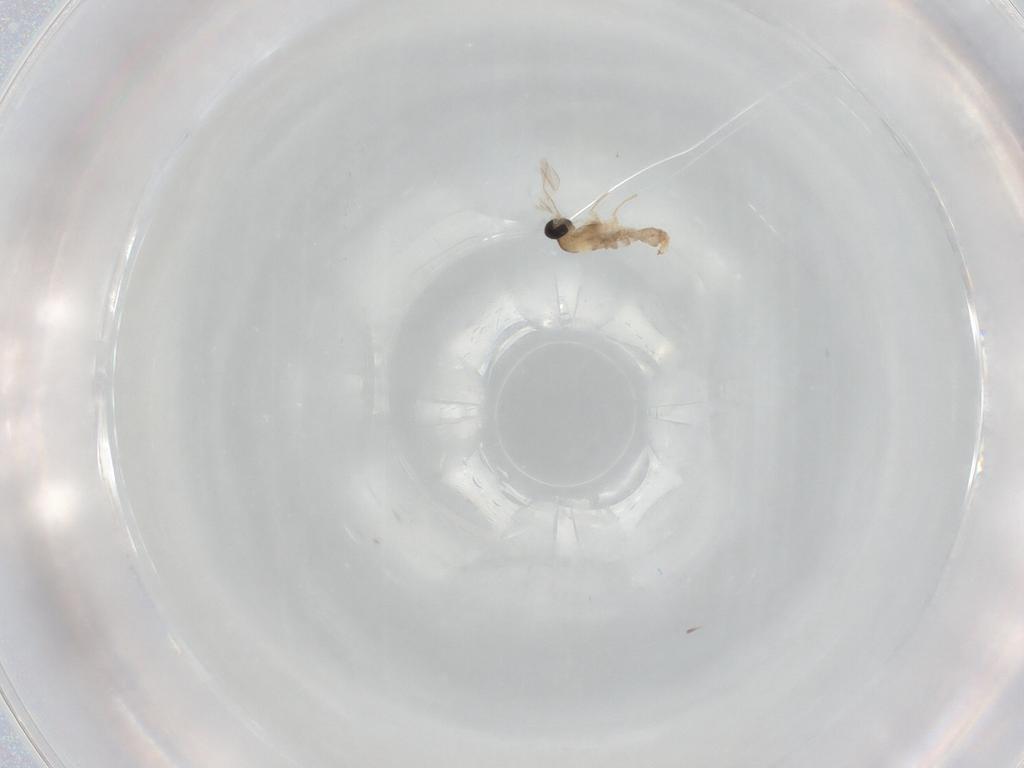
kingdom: Animalia
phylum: Arthropoda
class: Insecta
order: Diptera
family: Cecidomyiidae
